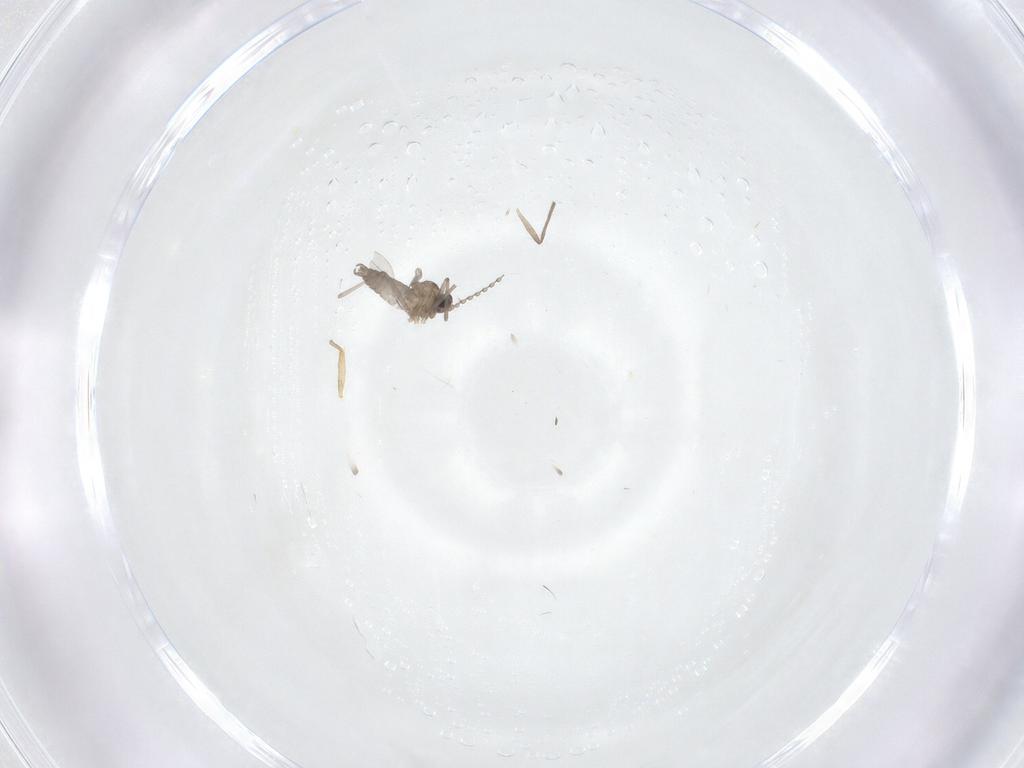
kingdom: Animalia
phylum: Arthropoda
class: Insecta
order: Diptera
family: Cecidomyiidae
